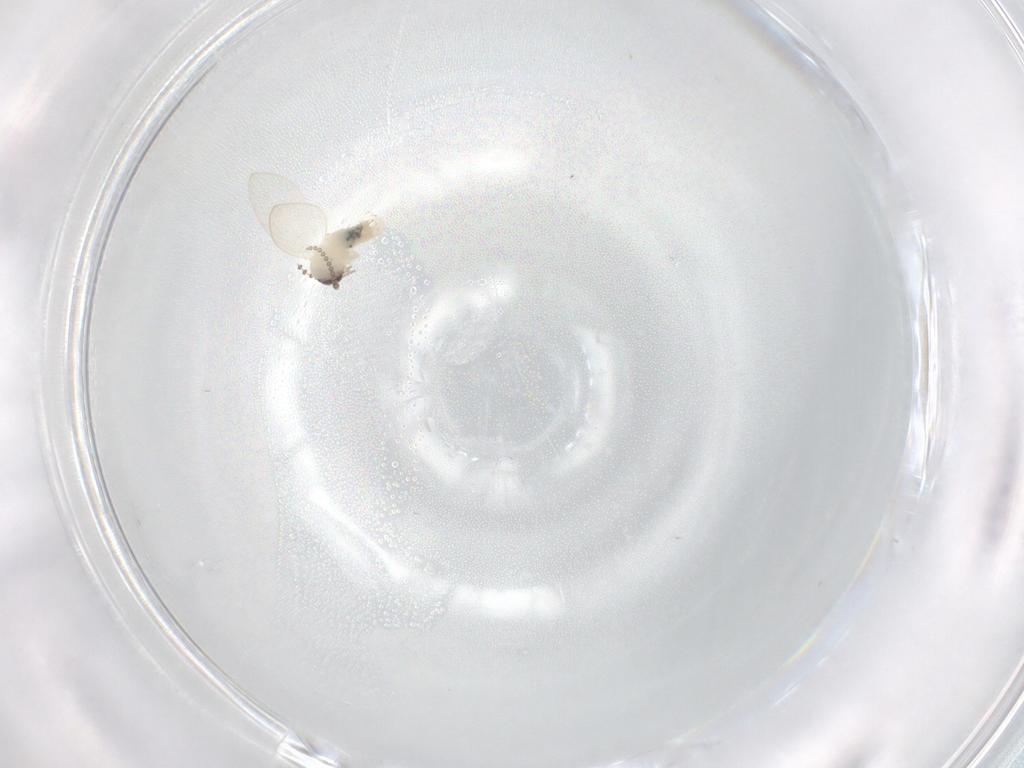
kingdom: Animalia
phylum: Arthropoda
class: Insecta
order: Diptera
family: Chironomidae
